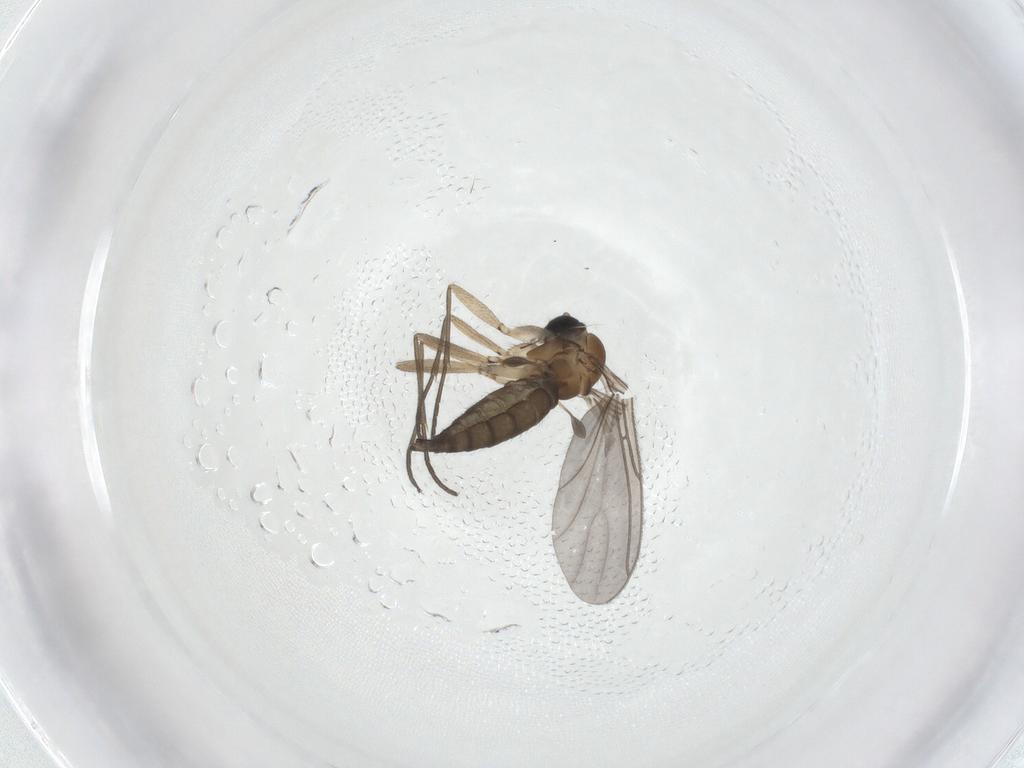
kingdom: Animalia
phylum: Arthropoda
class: Insecta
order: Diptera
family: Sciaridae
